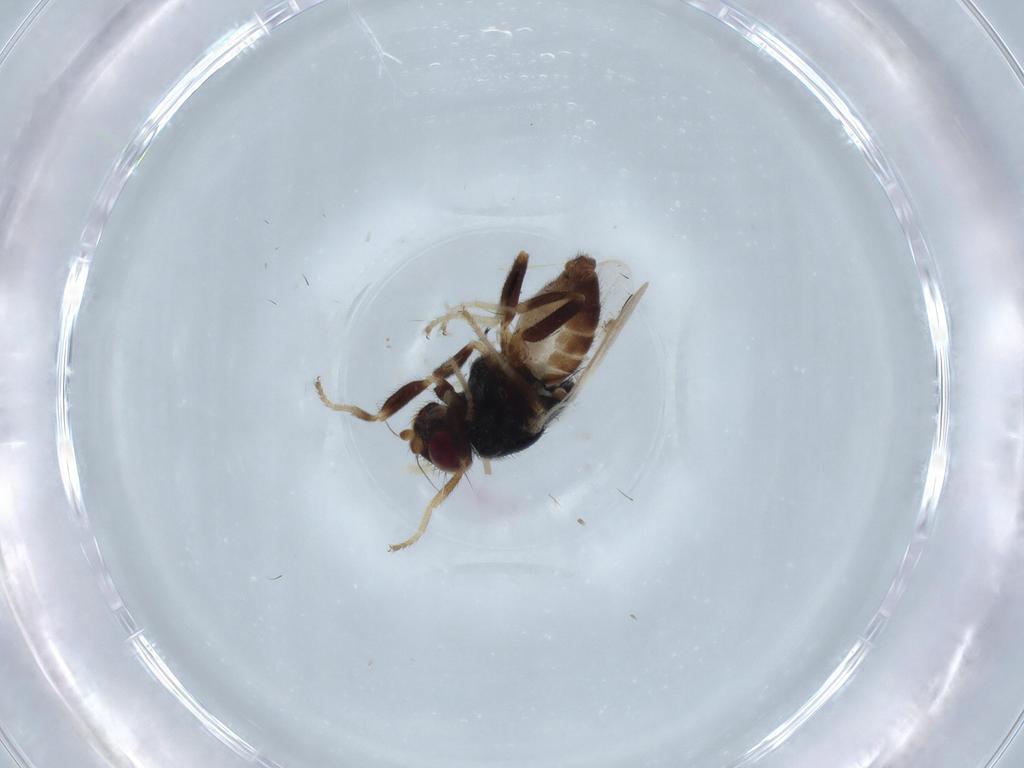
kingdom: Animalia
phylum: Arthropoda
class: Insecta
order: Diptera
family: Chloropidae
